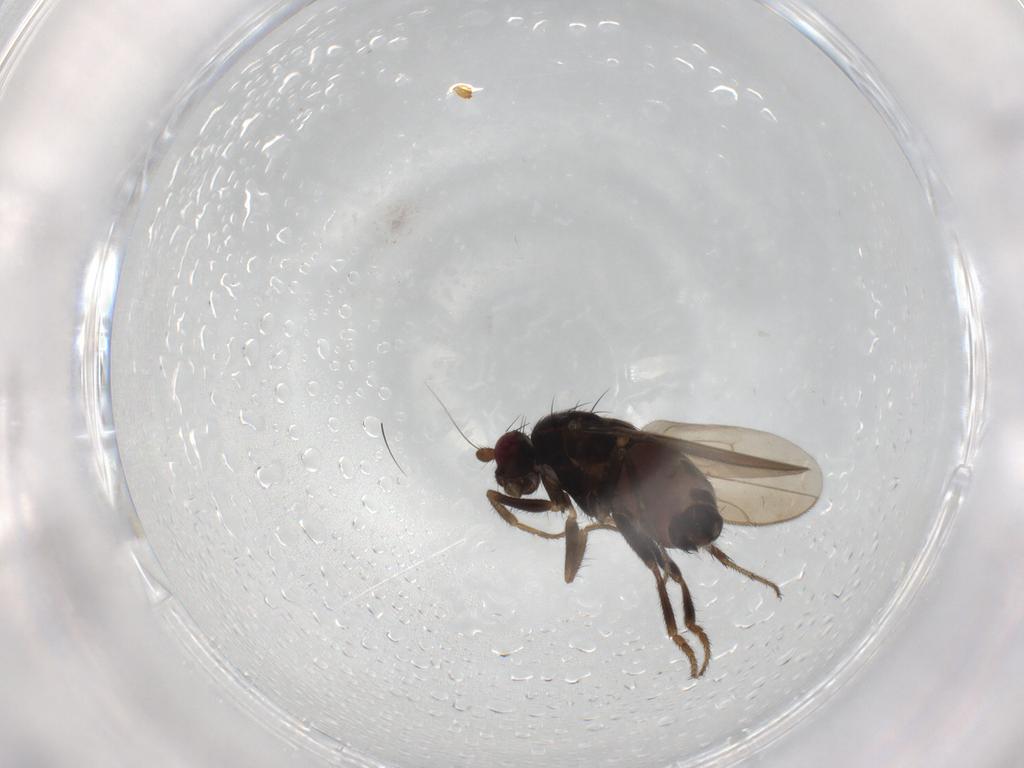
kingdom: Animalia
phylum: Arthropoda
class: Insecta
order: Diptera
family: Sphaeroceridae
